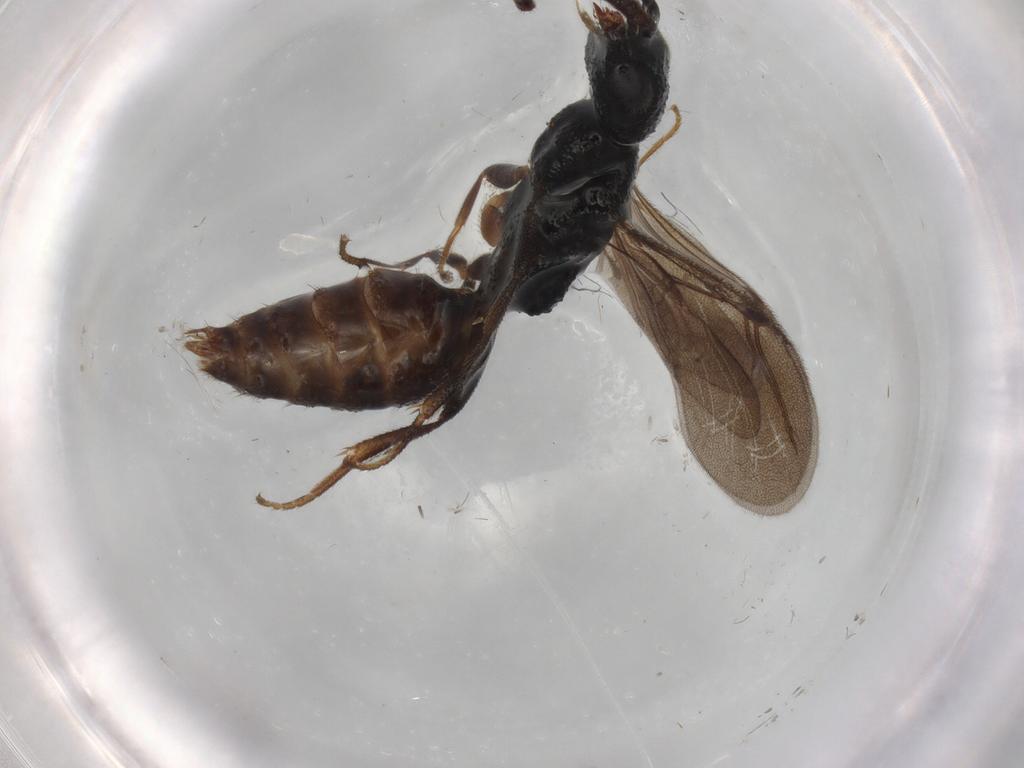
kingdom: Animalia
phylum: Arthropoda
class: Insecta
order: Hymenoptera
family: Bethylidae
